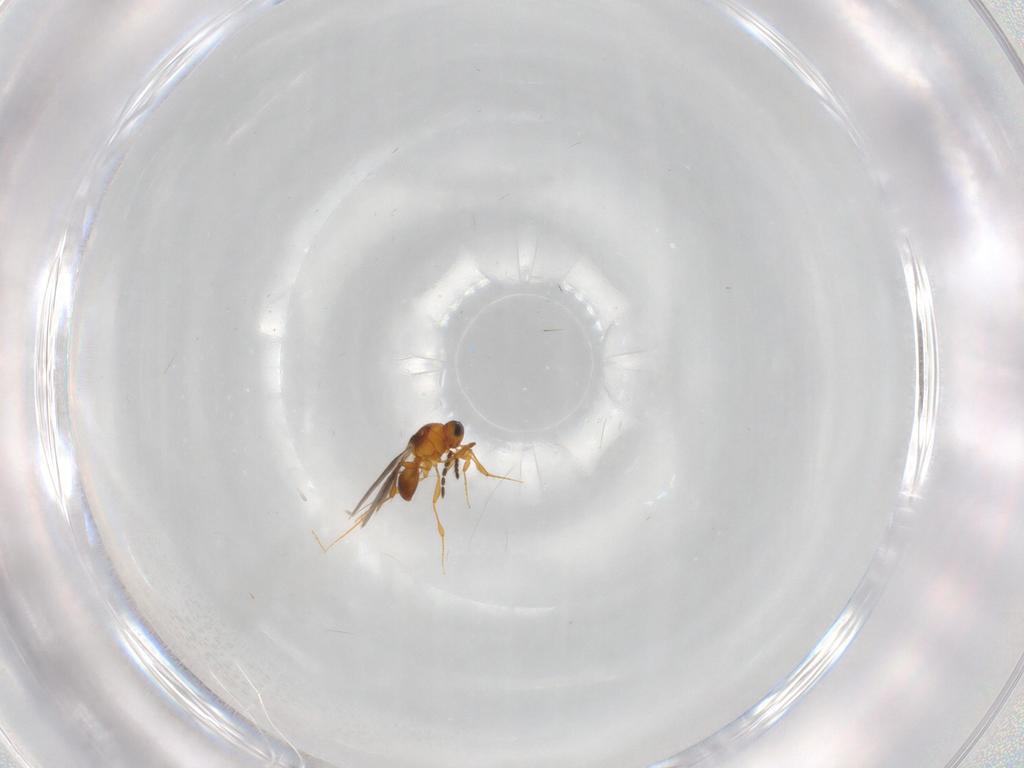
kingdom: Animalia
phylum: Arthropoda
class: Insecta
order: Hymenoptera
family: Platygastridae
